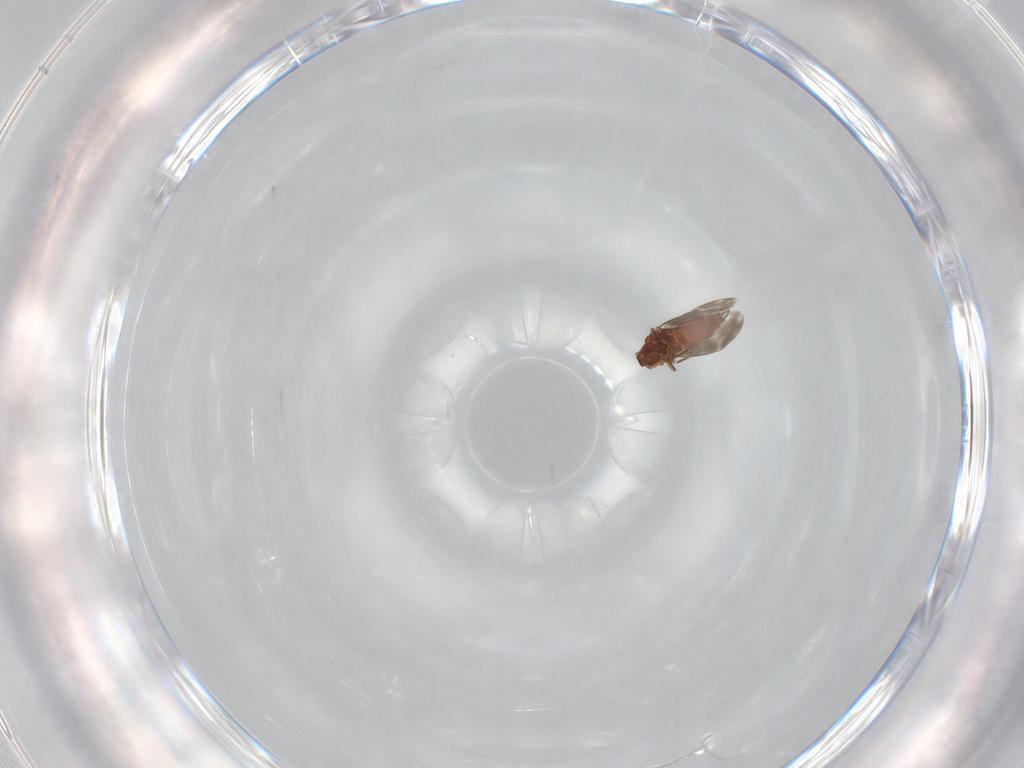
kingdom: Animalia
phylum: Arthropoda
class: Insecta
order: Hemiptera
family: Aleyrodidae
